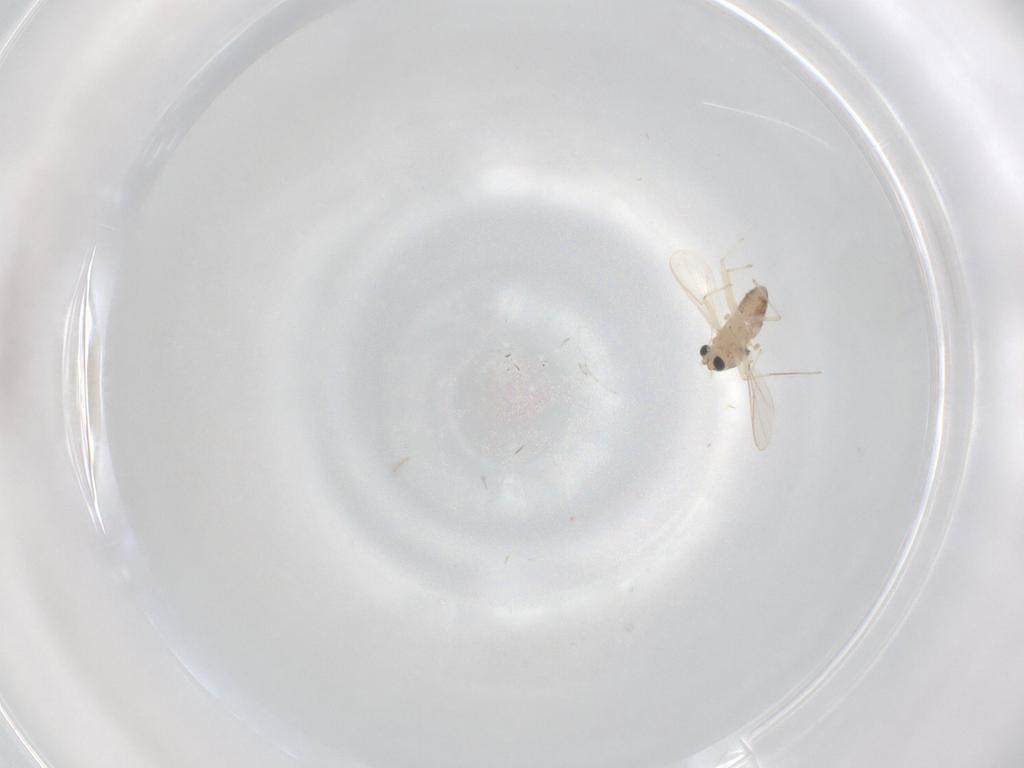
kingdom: Animalia
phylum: Arthropoda
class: Insecta
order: Diptera
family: Chironomidae
